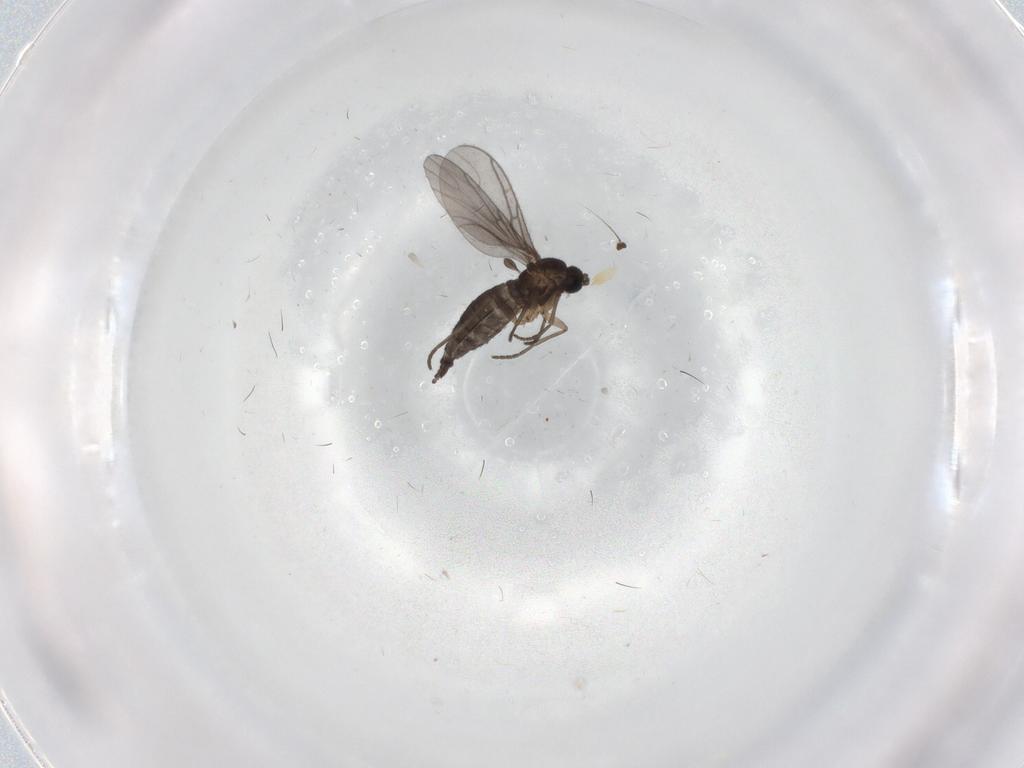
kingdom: Animalia
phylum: Arthropoda
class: Insecta
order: Diptera
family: Sciaridae
